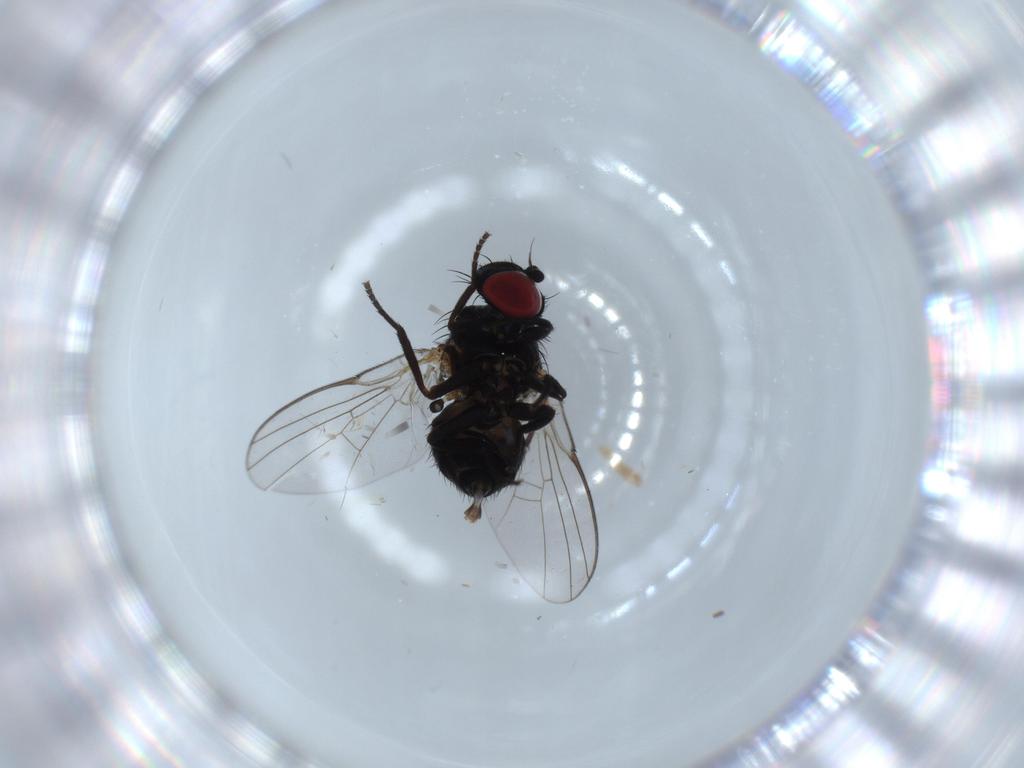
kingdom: Animalia
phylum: Arthropoda
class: Insecta
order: Diptera
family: Agromyzidae
